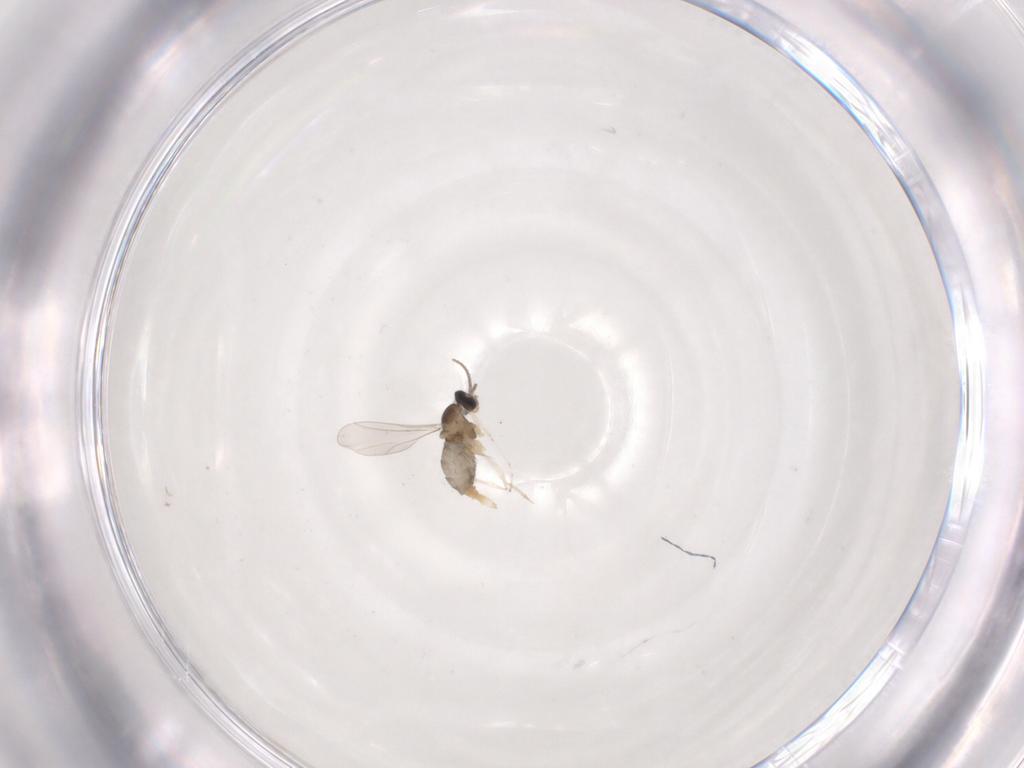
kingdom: Animalia
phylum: Arthropoda
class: Insecta
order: Diptera
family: Cecidomyiidae
